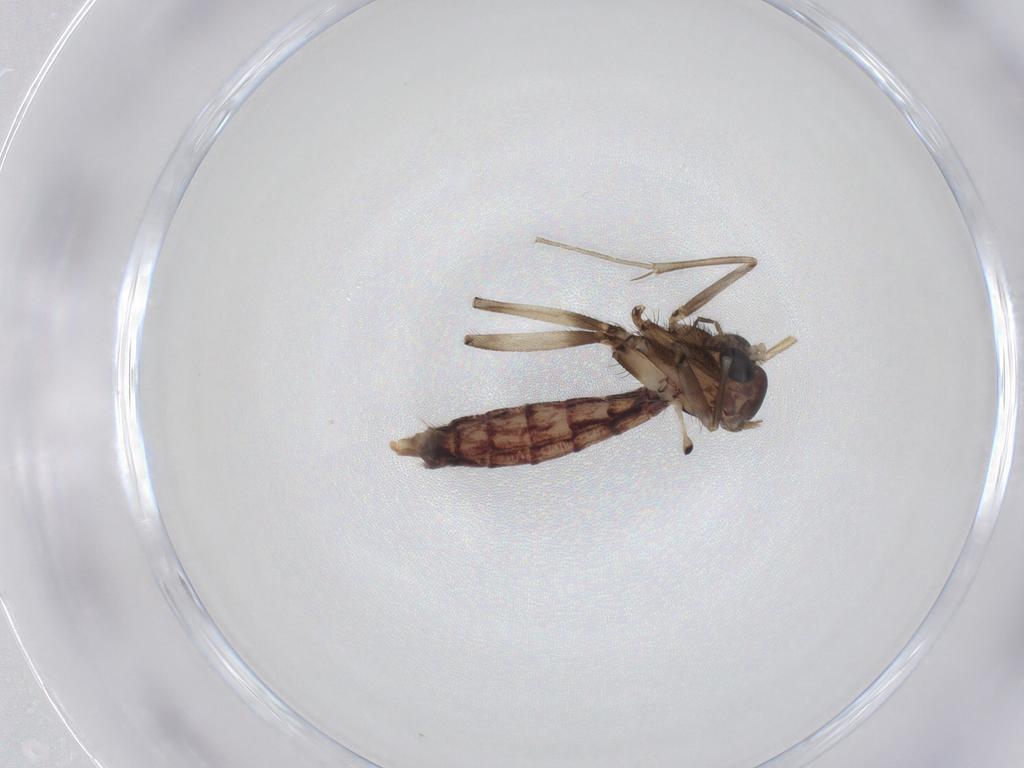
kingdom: Animalia
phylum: Arthropoda
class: Insecta
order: Diptera
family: Mycetophilidae
